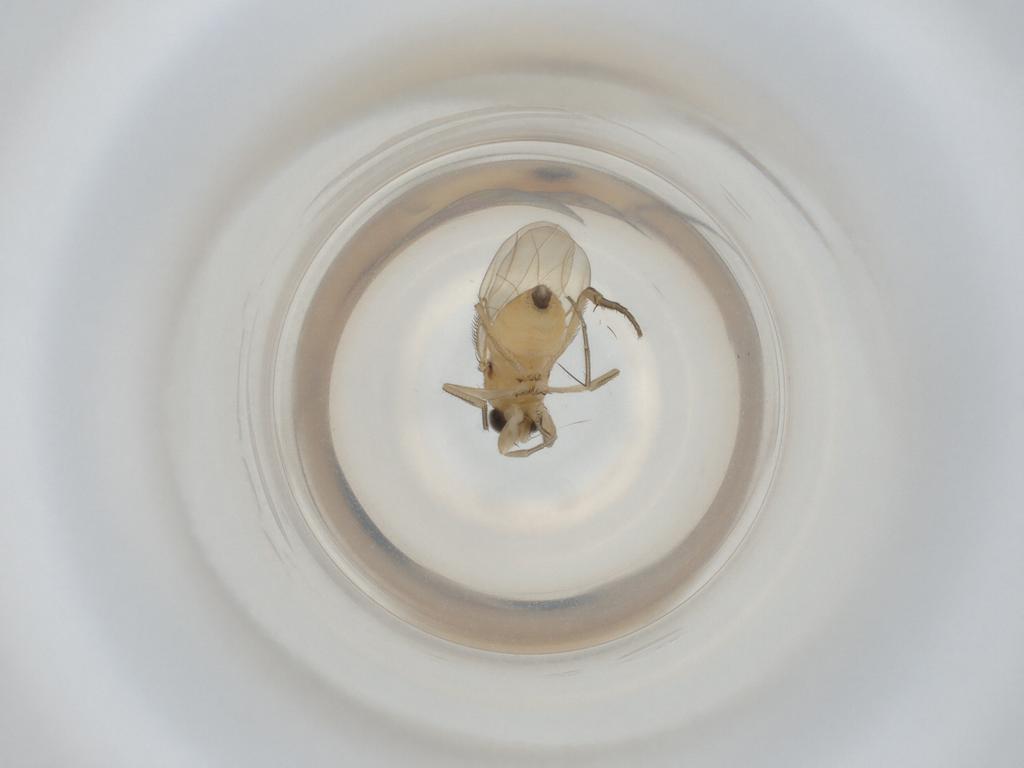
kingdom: Animalia
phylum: Arthropoda
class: Insecta
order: Diptera
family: Phoridae
